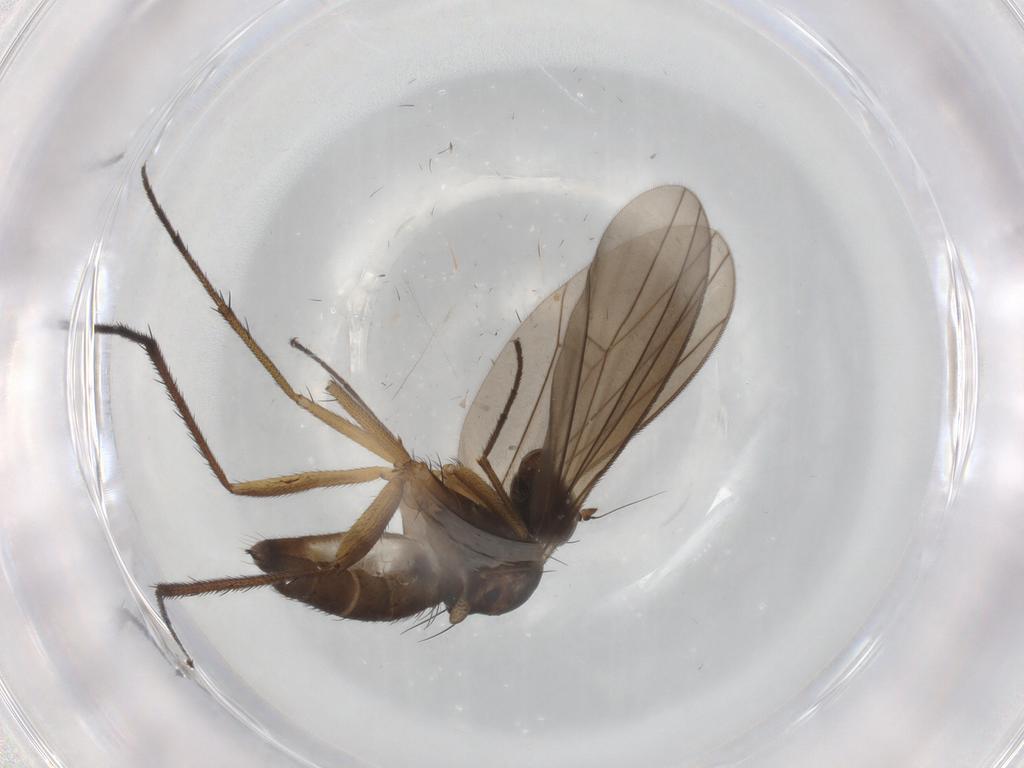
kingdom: Animalia
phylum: Arthropoda
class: Insecta
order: Diptera
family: Dolichopodidae
